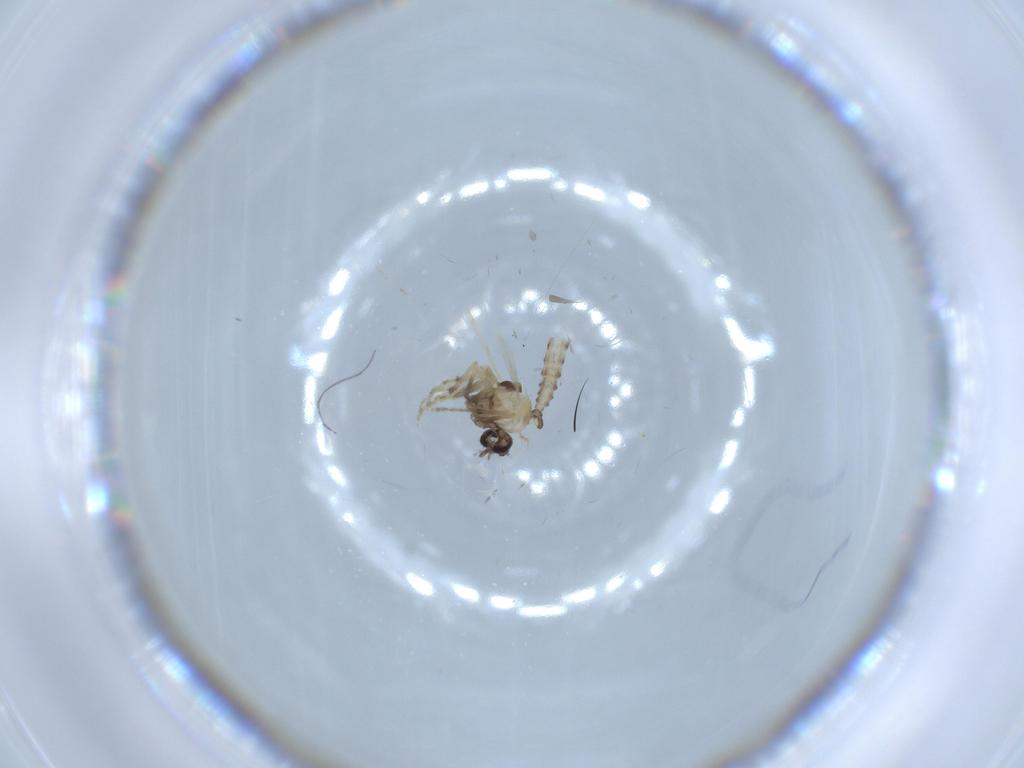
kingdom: Animalia
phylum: Arthropoda
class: Insecta
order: Diptera
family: Ceratopogonidae
